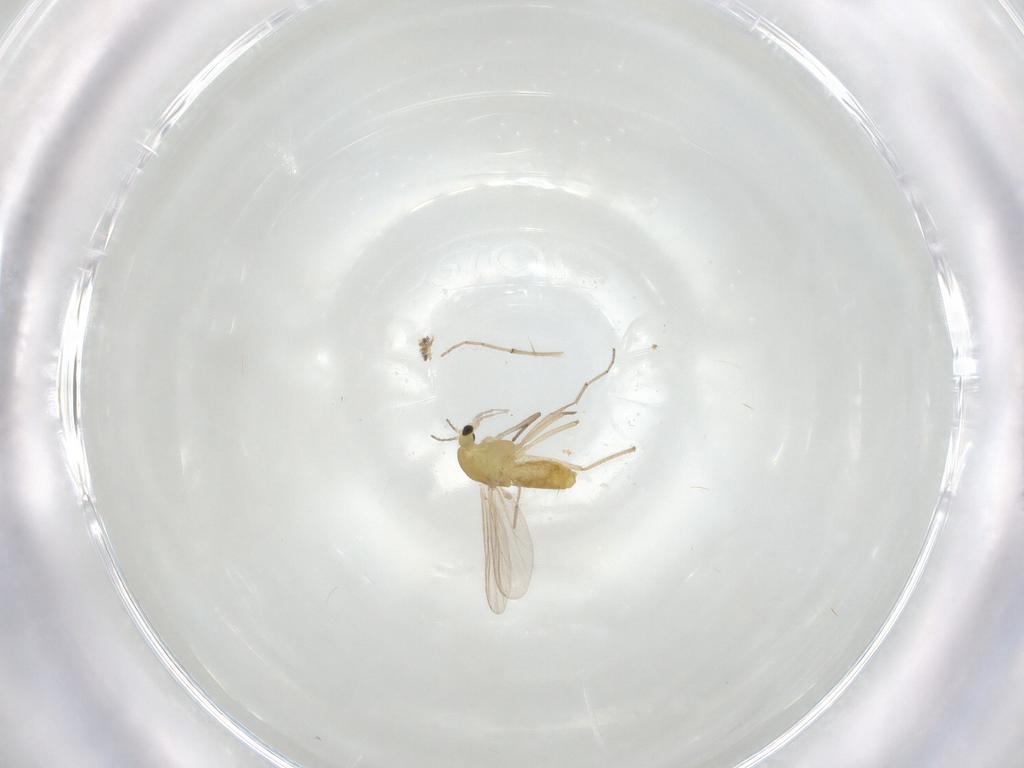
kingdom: Animalia
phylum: Arthropoda
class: Insecta
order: Diptera
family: Chironomidae
